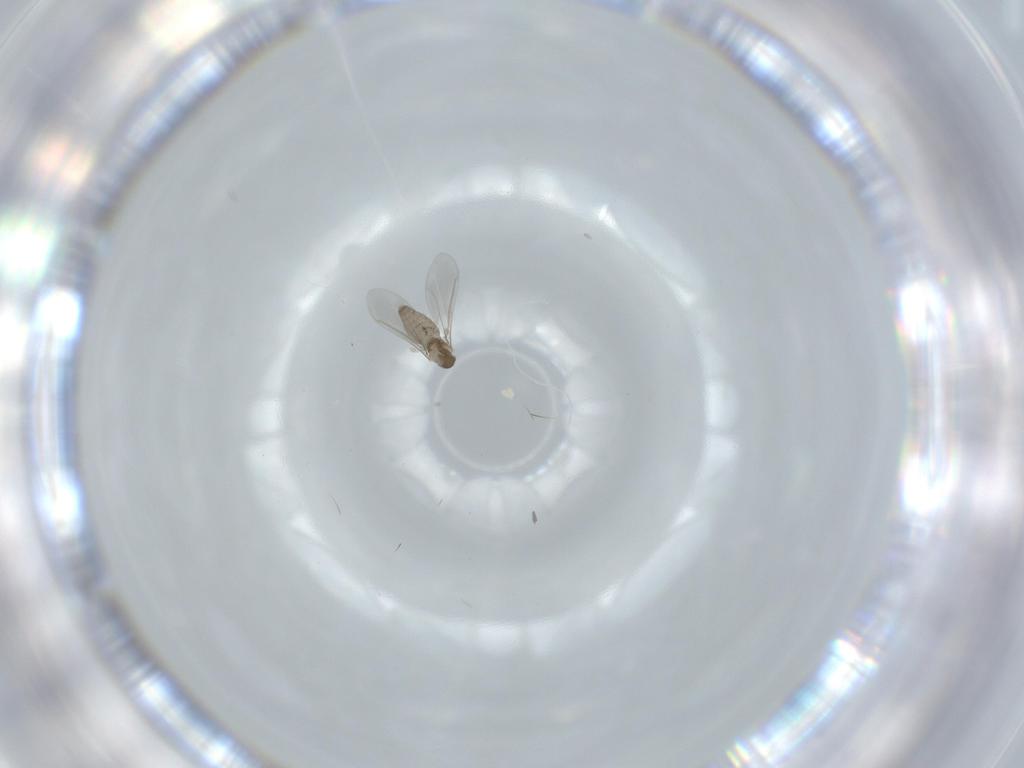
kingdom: Animalia
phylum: Arthropoda
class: Insecta
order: Diptera
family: Dolichopodidae
